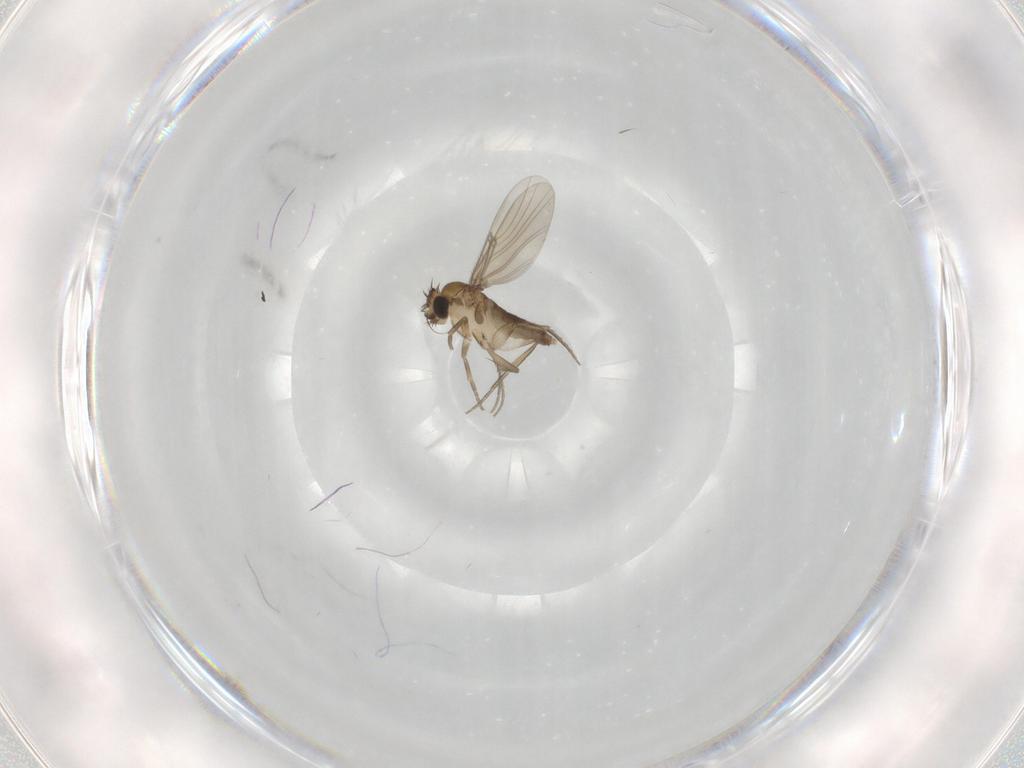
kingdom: Animalia
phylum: Arthropoda
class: Insecta
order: Diptera
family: Phoridae
